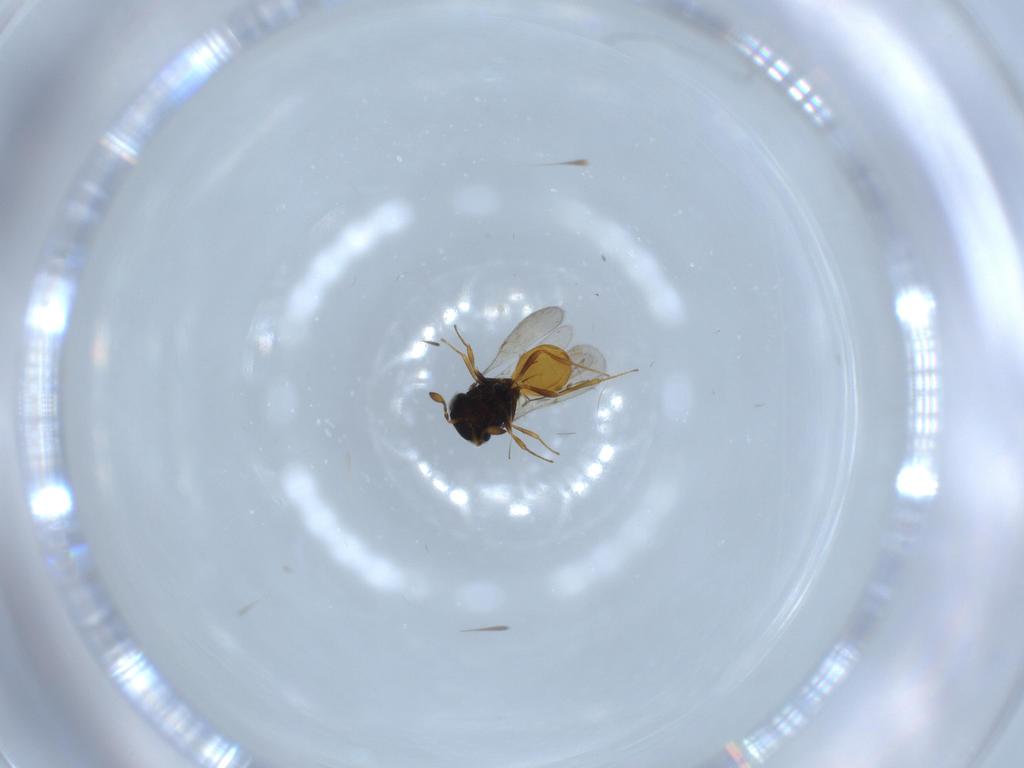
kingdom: Animalia
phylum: Arthropoda
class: Insecta
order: Hymenoptera
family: Scelionidae
